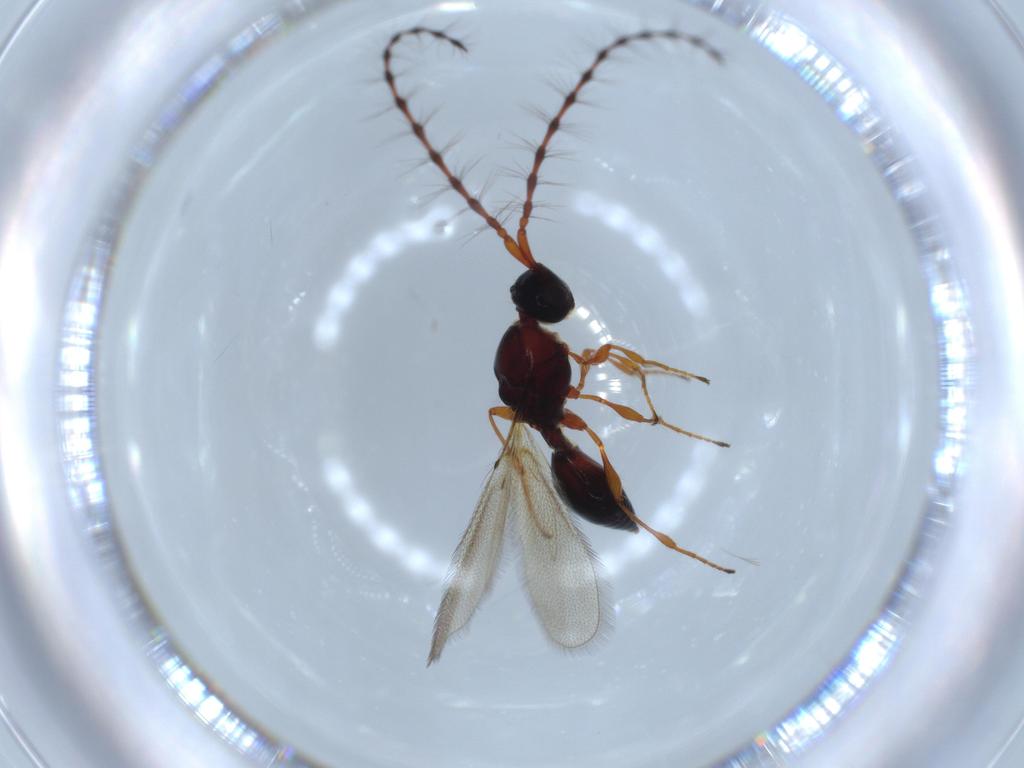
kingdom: Animalia
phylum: Arthropoda
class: Insecta
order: Hymenoptera
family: Diapriidae
